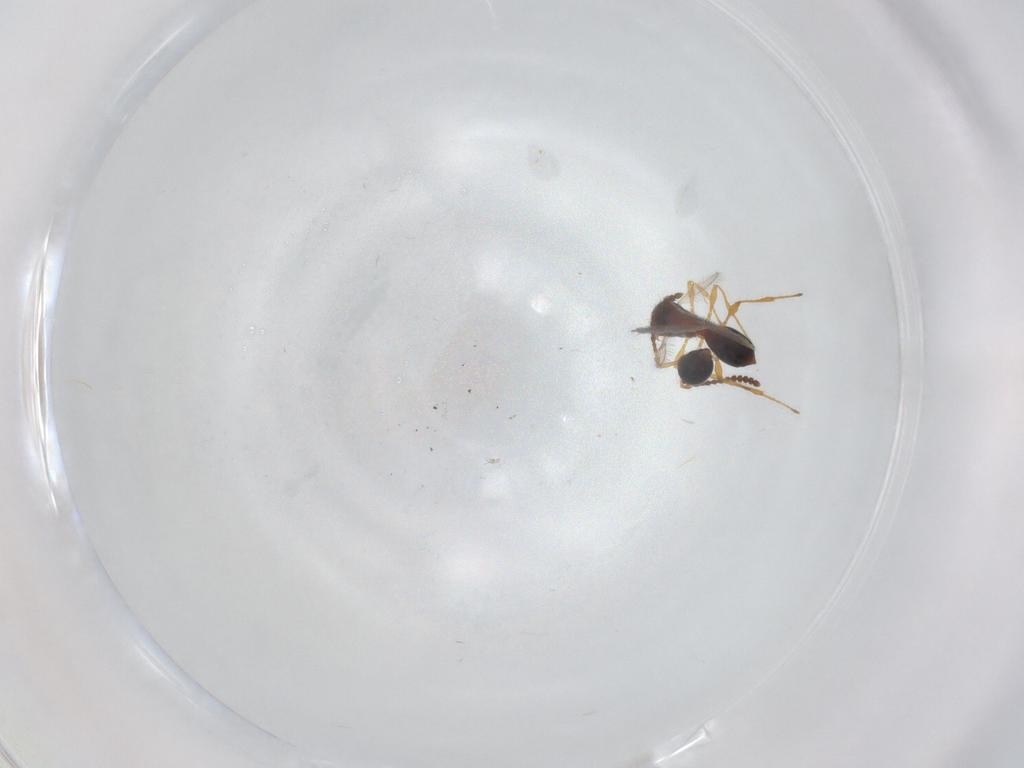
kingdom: Animalia
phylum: Arthropoda
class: Insecta
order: Hymenoptera
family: Diapriidae
